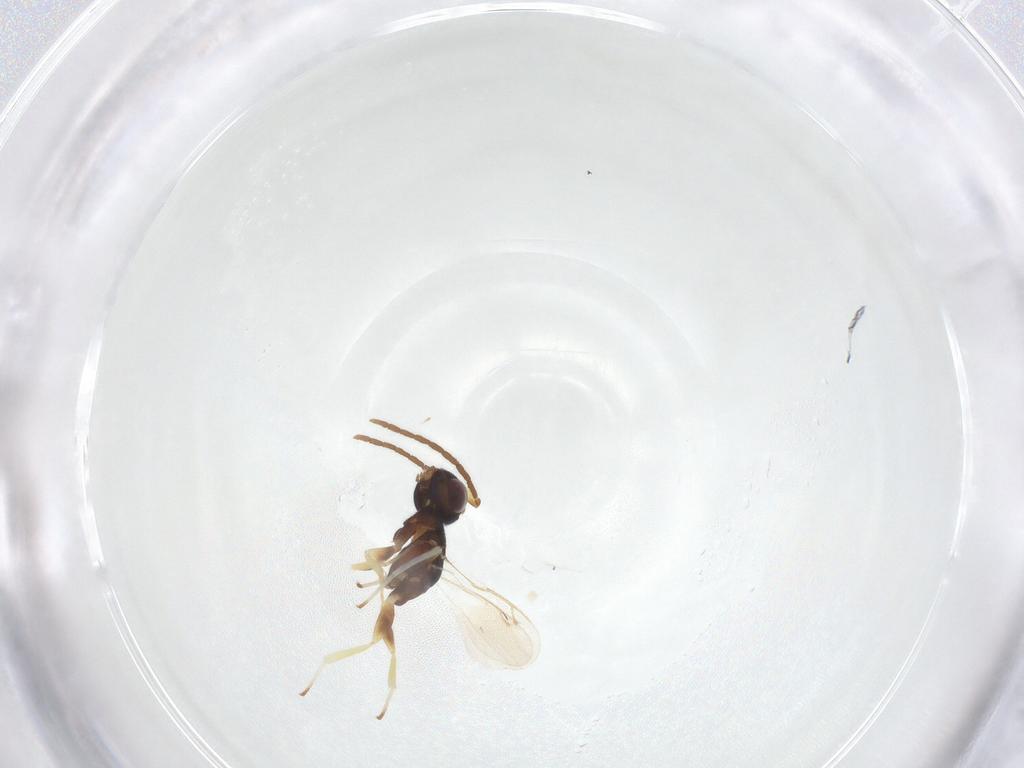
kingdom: Animalia
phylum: Arthropoda
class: Insecta
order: Hymenoptera
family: Eupelmidae
